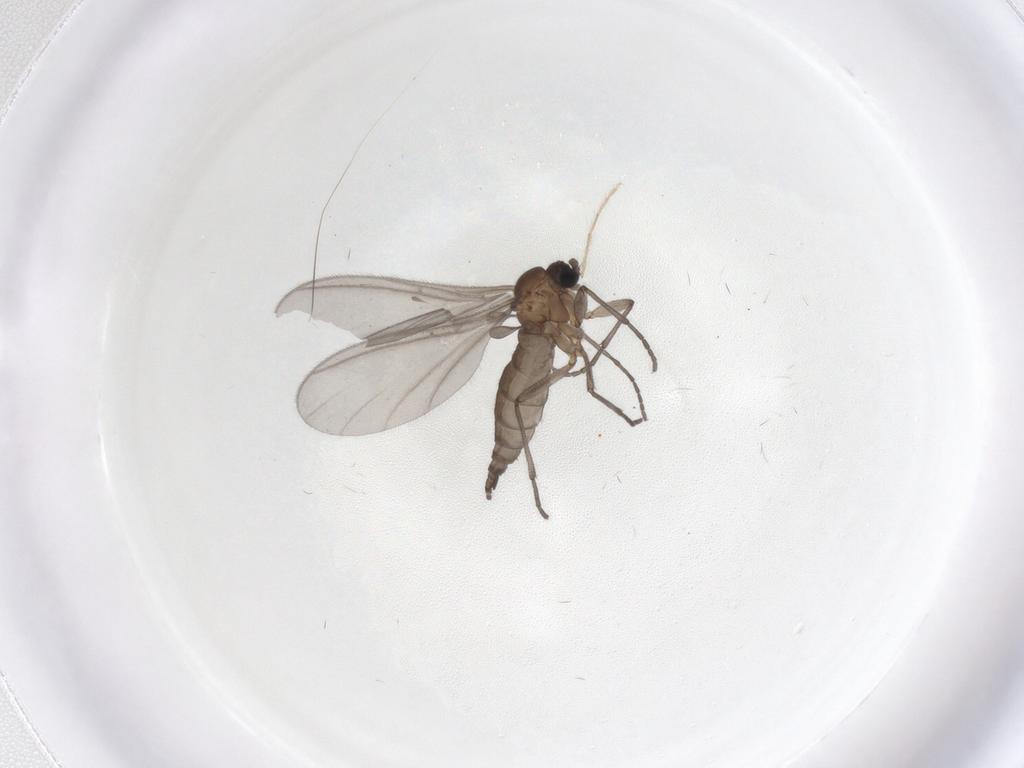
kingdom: Animalia
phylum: Arthropoda
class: Insecta
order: Diptera
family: Sciaridae
